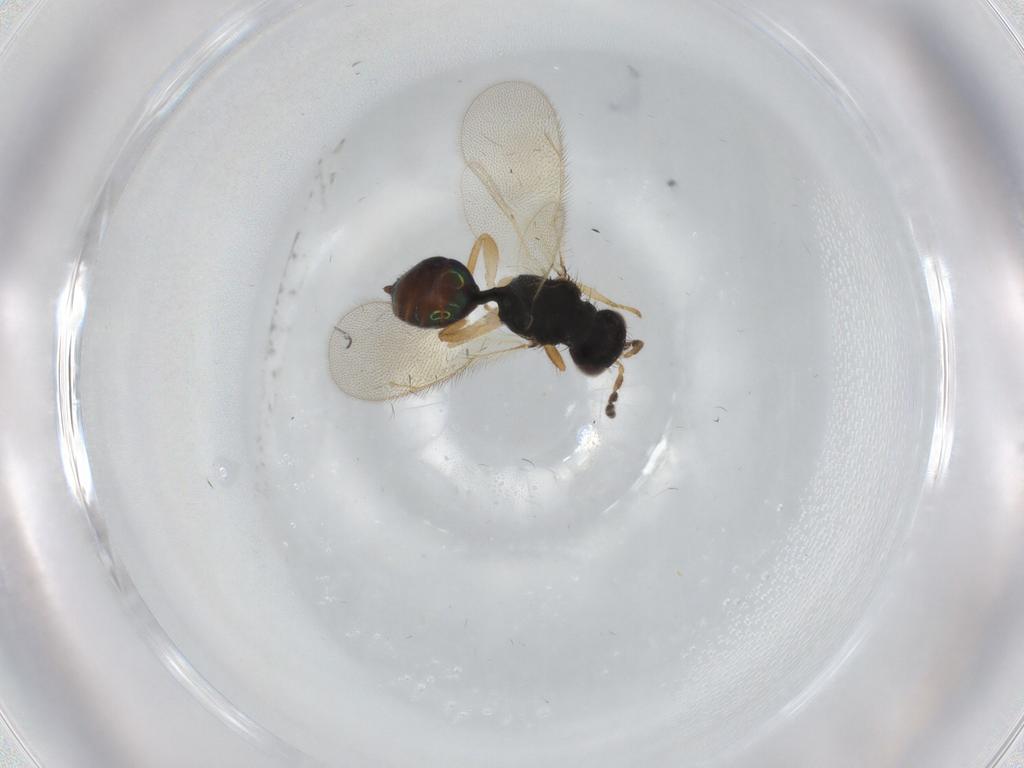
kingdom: Animalia
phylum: Arthropoda
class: Insecta
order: Hymenoptera
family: Eulophidae
